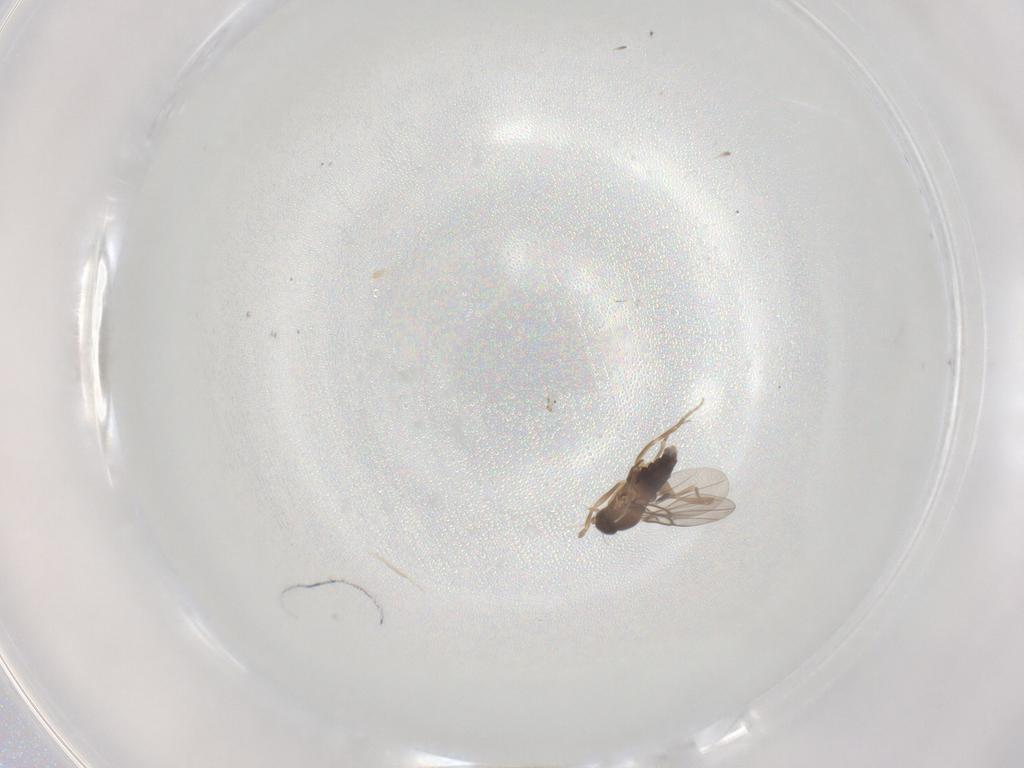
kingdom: Animalia
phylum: Arthropoda
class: Insecta
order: Diptera
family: Phoridae
